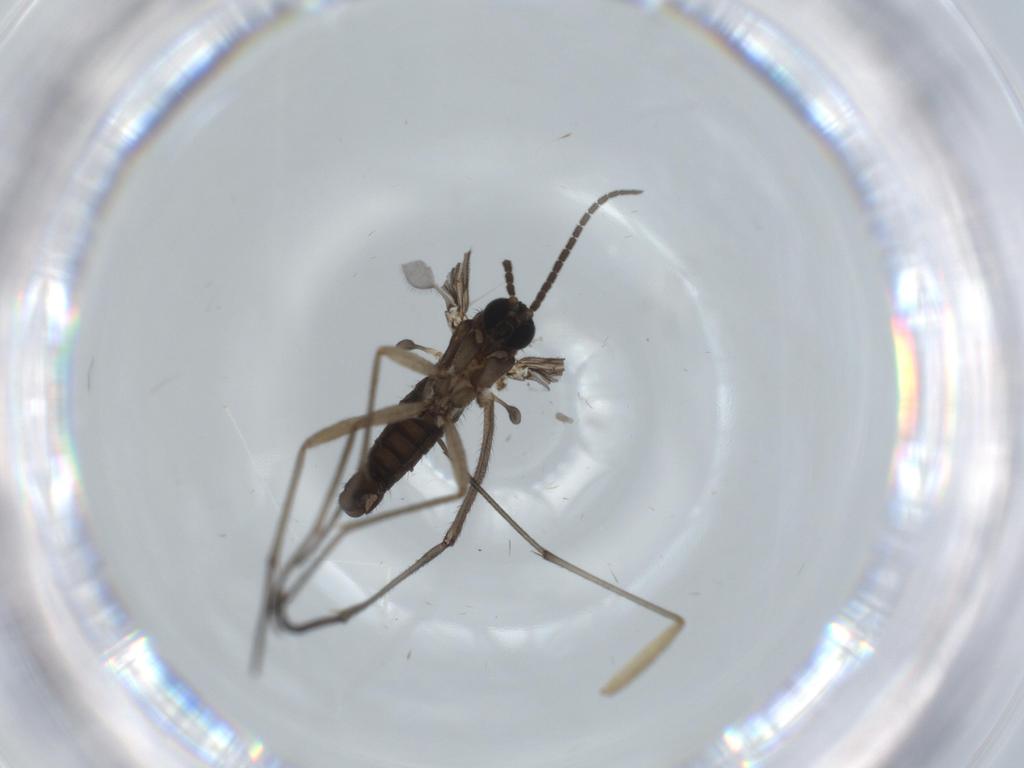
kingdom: Animalia
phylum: Arthropoda
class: Insecta
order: Diptera
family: Sciaridae
